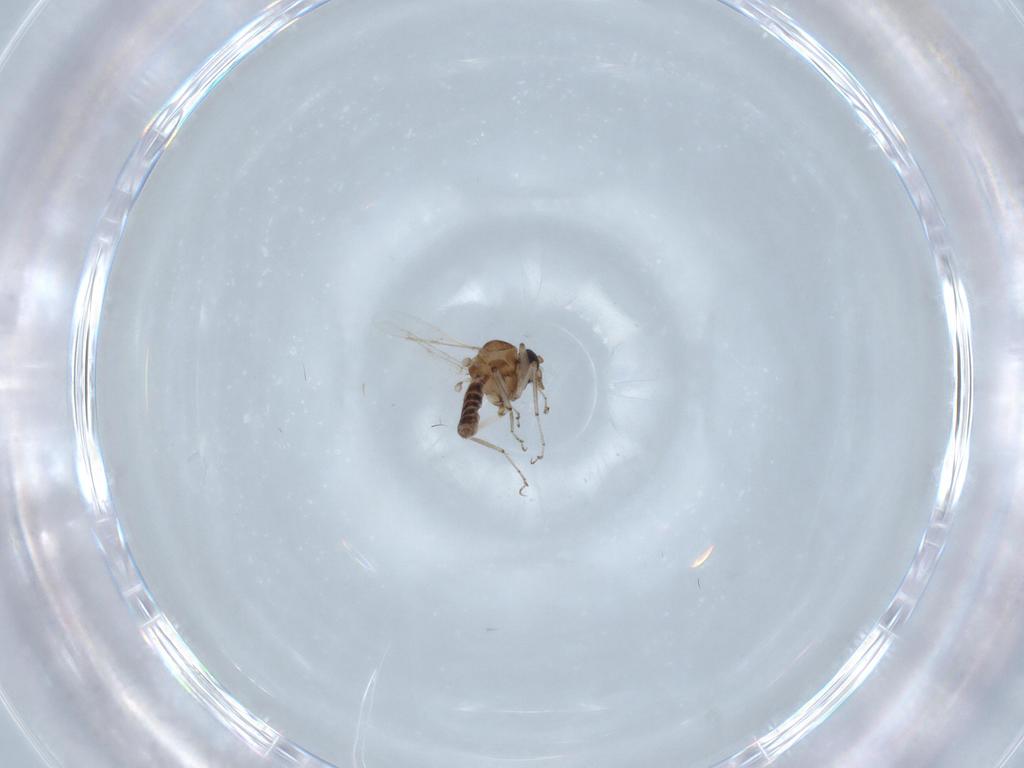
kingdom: Animalia
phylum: Arthropoda
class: Insecta
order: Diptera
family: Ceratopogonidae
